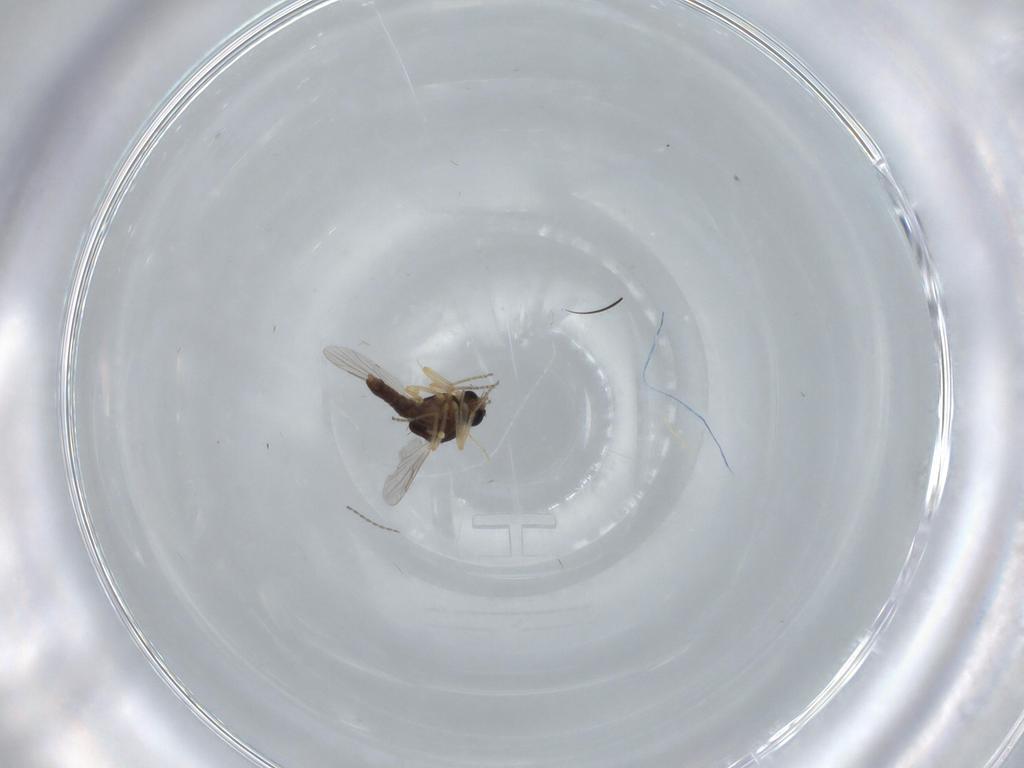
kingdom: Animalia
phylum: Arthropoda
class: Insecta
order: Diptera
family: Ceratopogonidae
